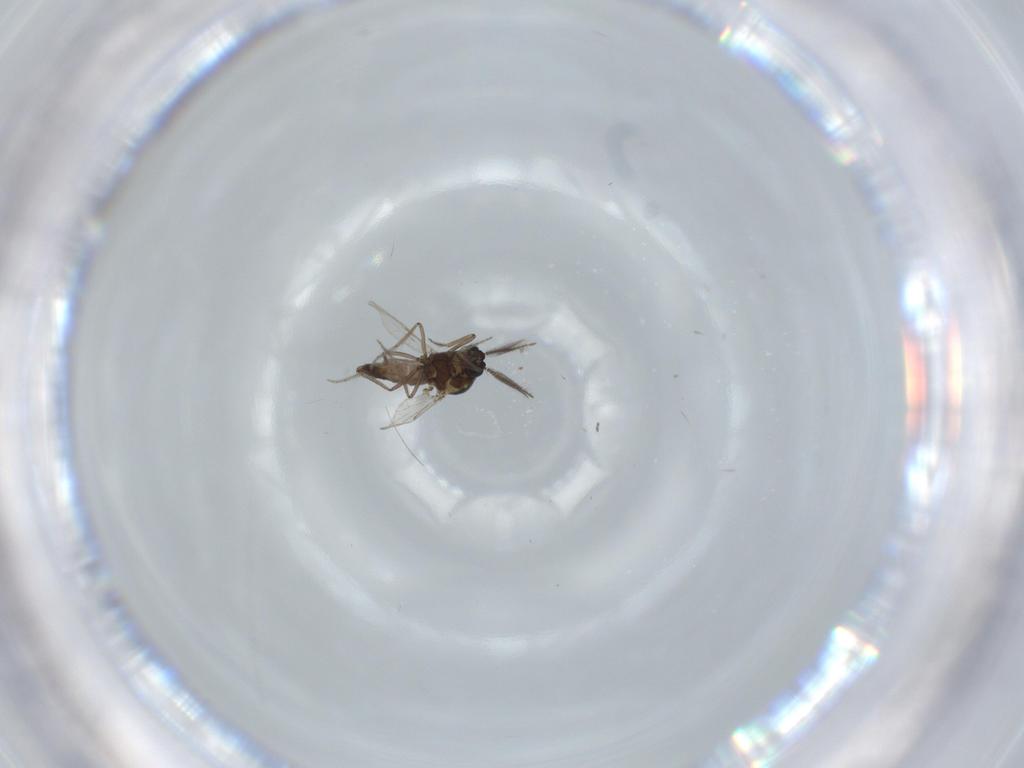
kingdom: Animalia
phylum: Arthropoda
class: Insecta
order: Diptera
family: Ceratopogonidae
